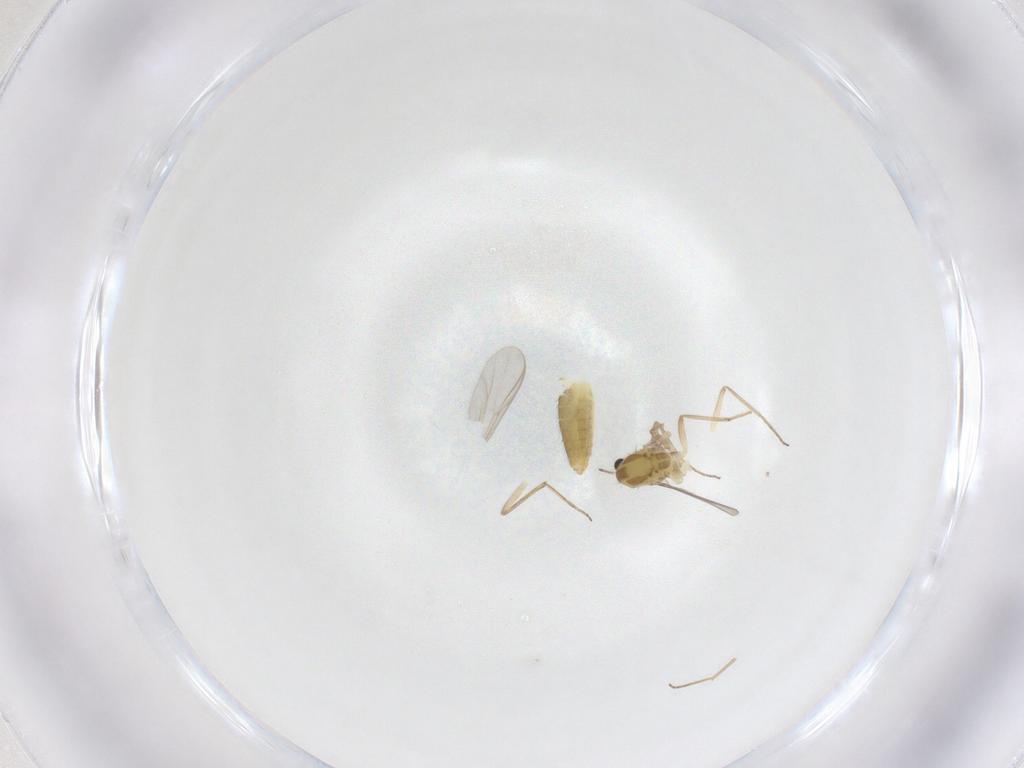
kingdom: Animalia
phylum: Arthropoda
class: Insecta
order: Diptera
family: Chironomidae
